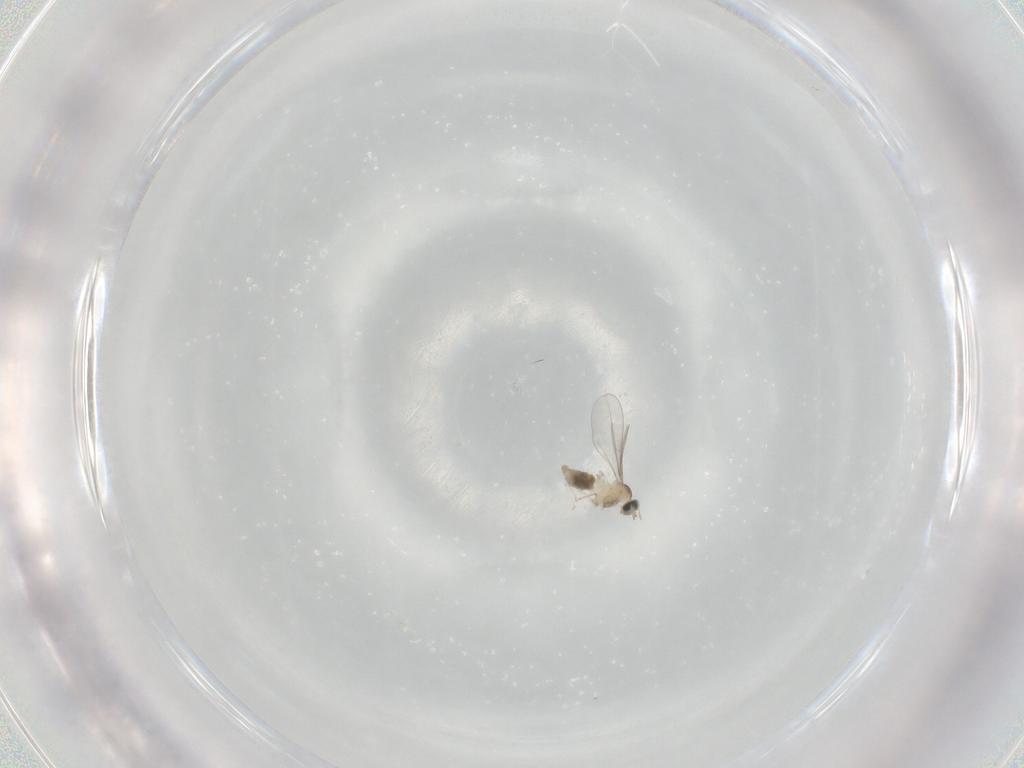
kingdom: Animalia
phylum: Arthropoda
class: Insecta
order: Diptera
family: Cecidomyiidae
